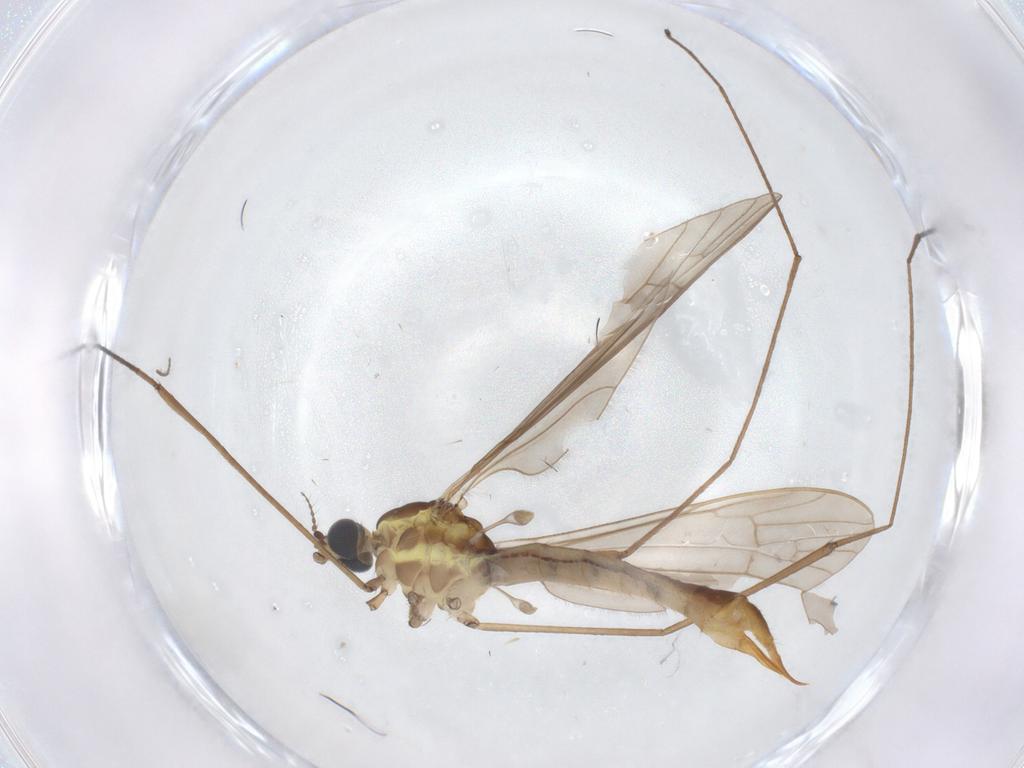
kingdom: Animalia
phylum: Arthropoda
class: Insecta
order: Diptera
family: Limoniidae
